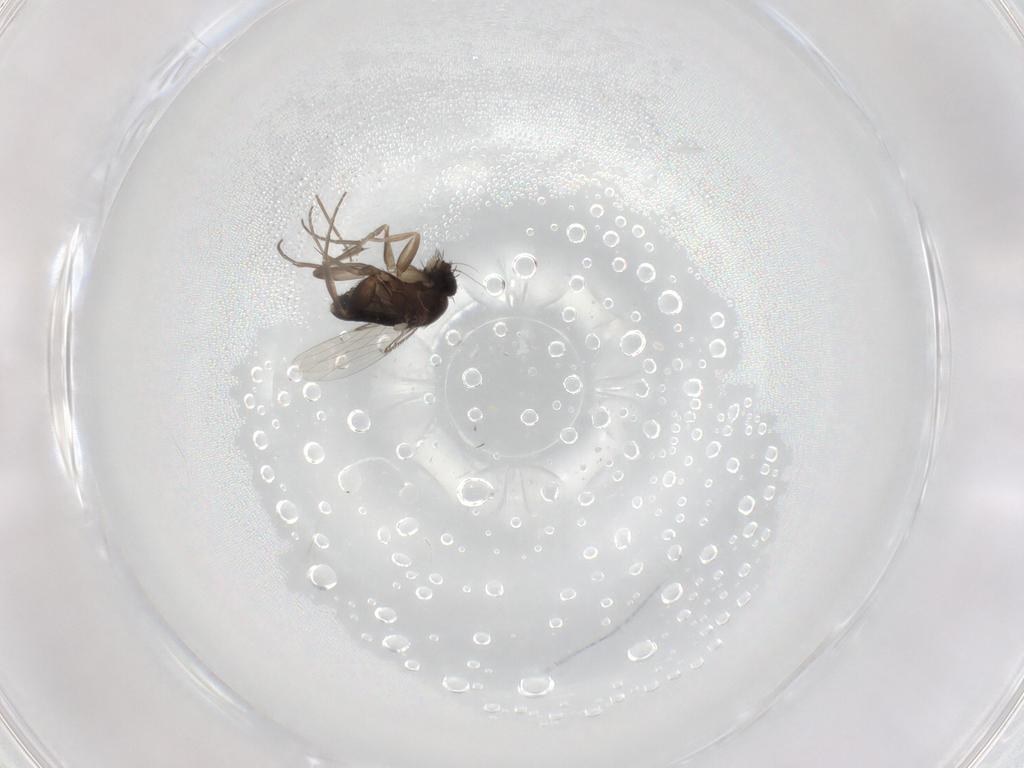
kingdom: Animalia
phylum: Arthropoda
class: Insecta
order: Diptera
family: Phoridae
